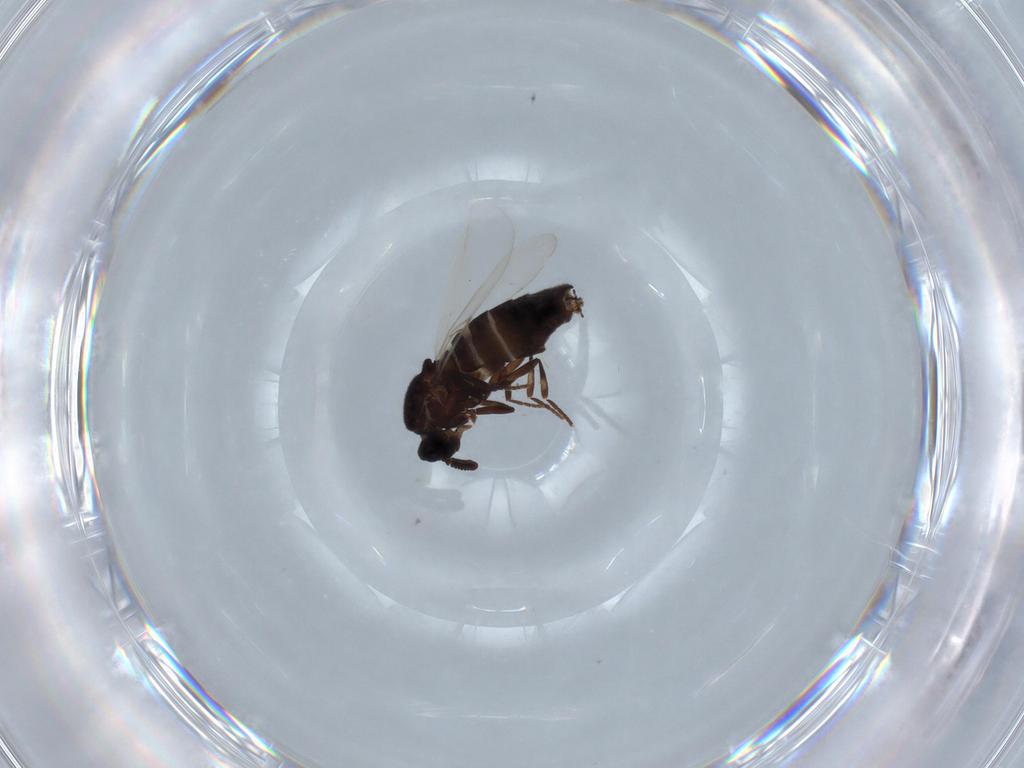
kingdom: Animalia
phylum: Arthropoda
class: Insecta
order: Diptera
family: Scatopsidae
